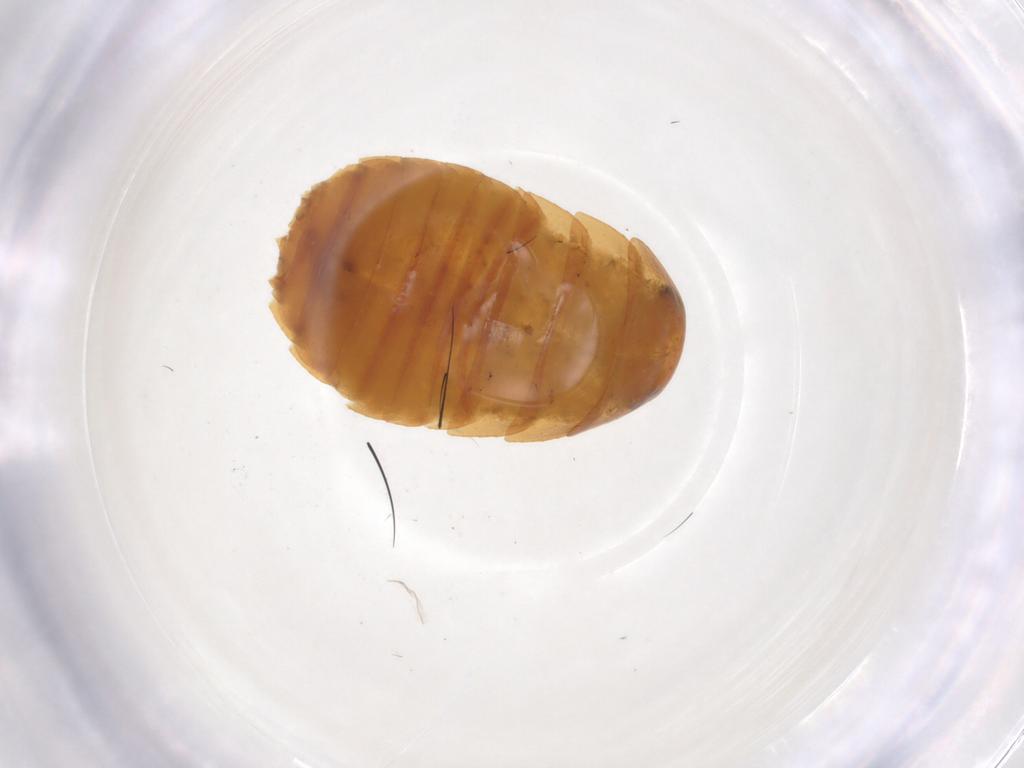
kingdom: Animalia
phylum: Arthropoda
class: Insecta
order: Blattodea
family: Blaberidae
